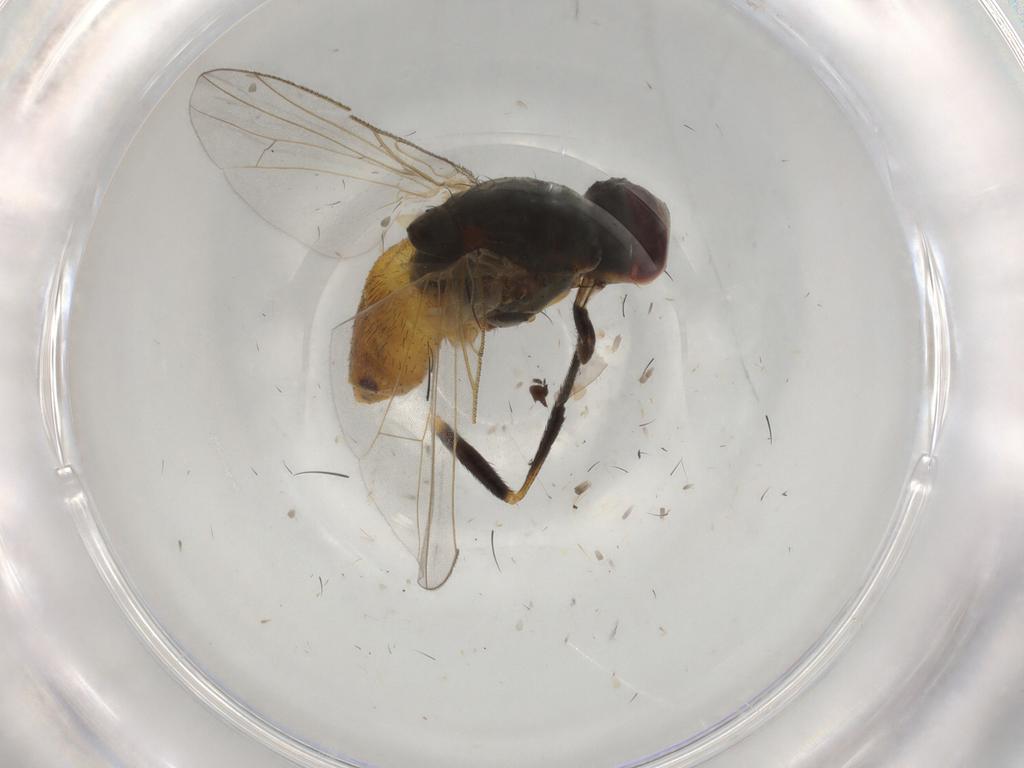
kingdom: Animalia
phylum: Arthropoda
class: Insecta
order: Diptera
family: Muscidae
